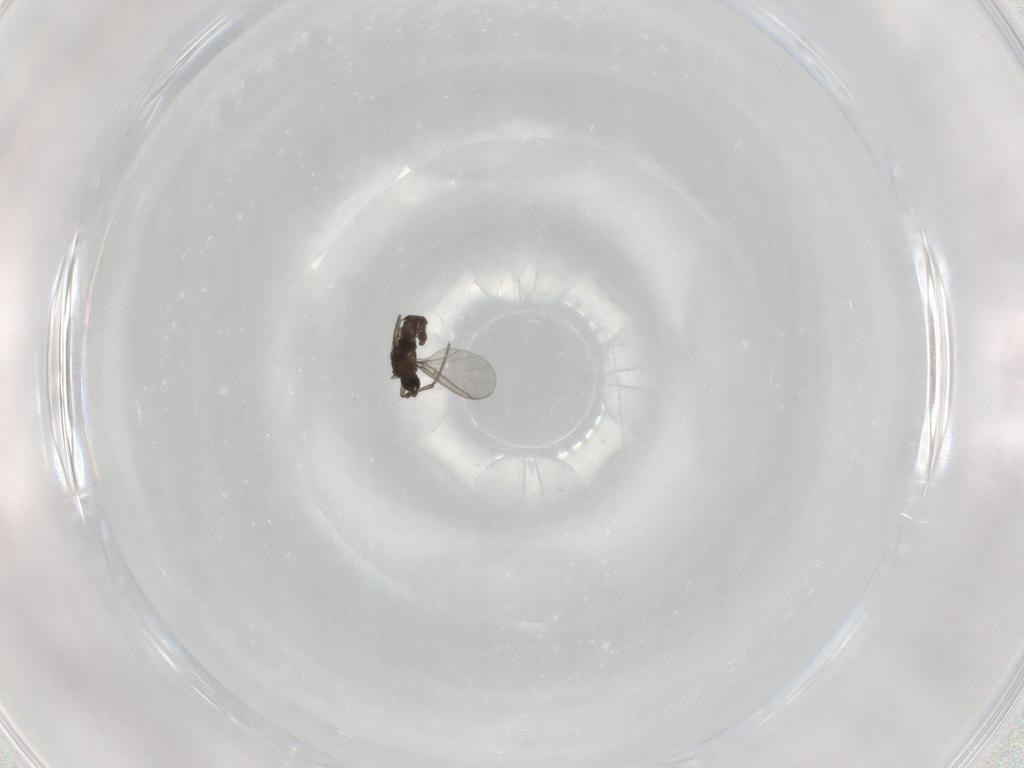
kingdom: Animalia
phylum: Arthropoda
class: Insecta
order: Diptera
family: Sciaridae
